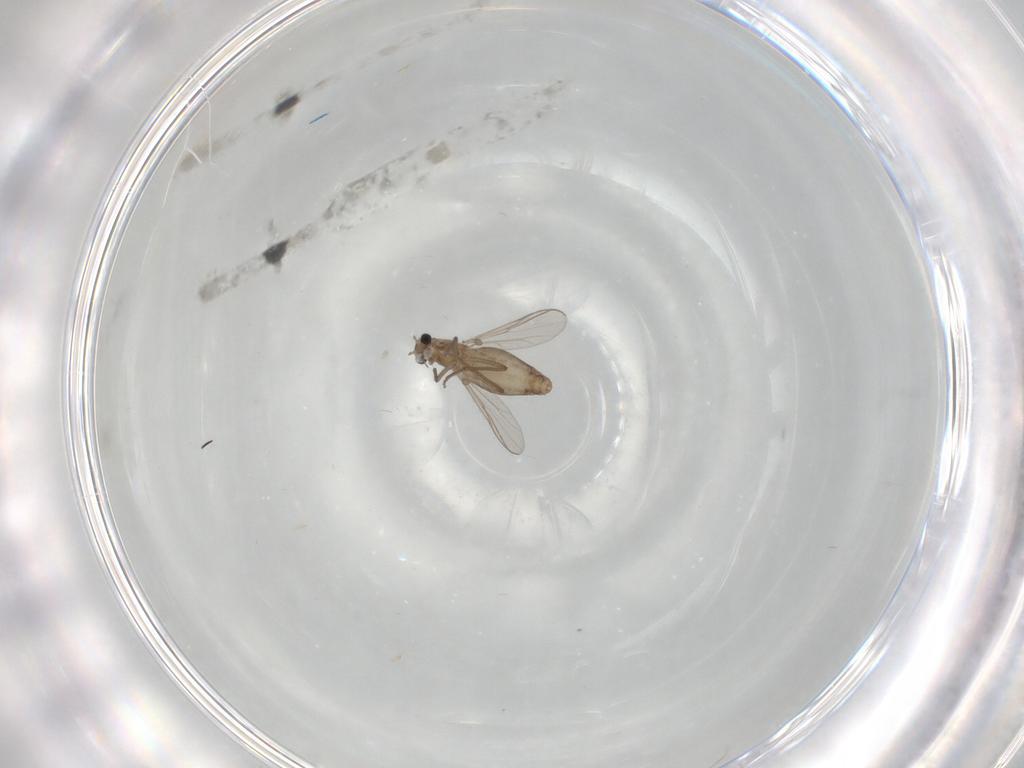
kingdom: Animalia
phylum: Arthropoda
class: Insecta
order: Diptera
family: Chironomidae
